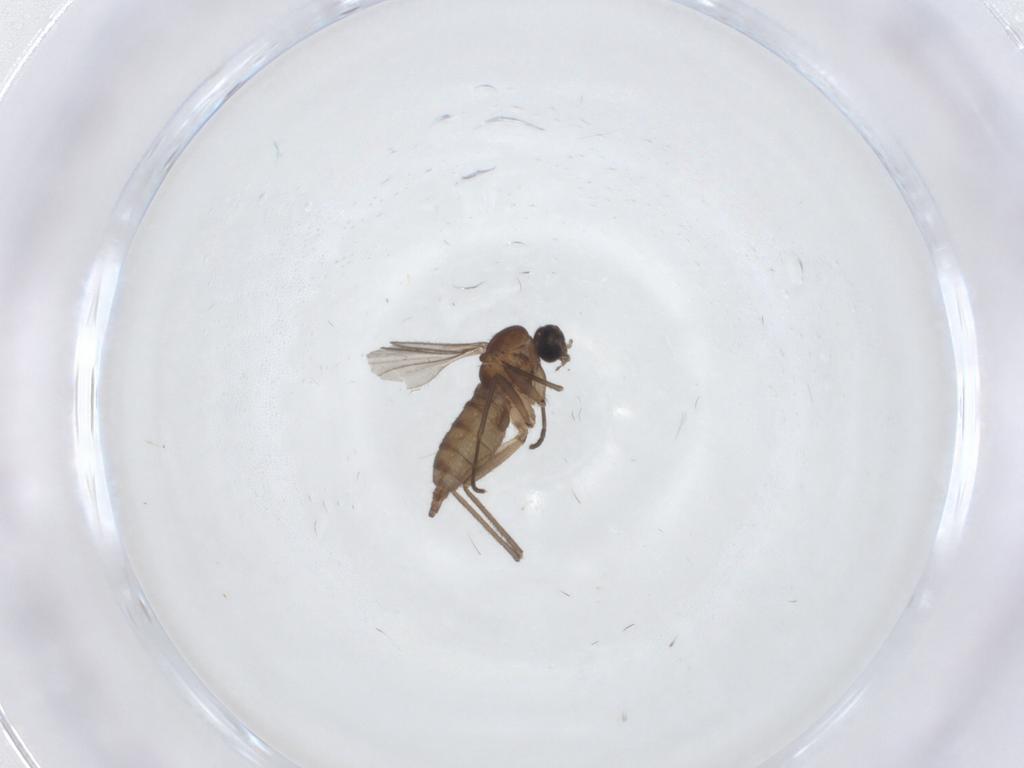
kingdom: Animalia
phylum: Arthropoda
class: Insecta
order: Diptera
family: Sciaridae
